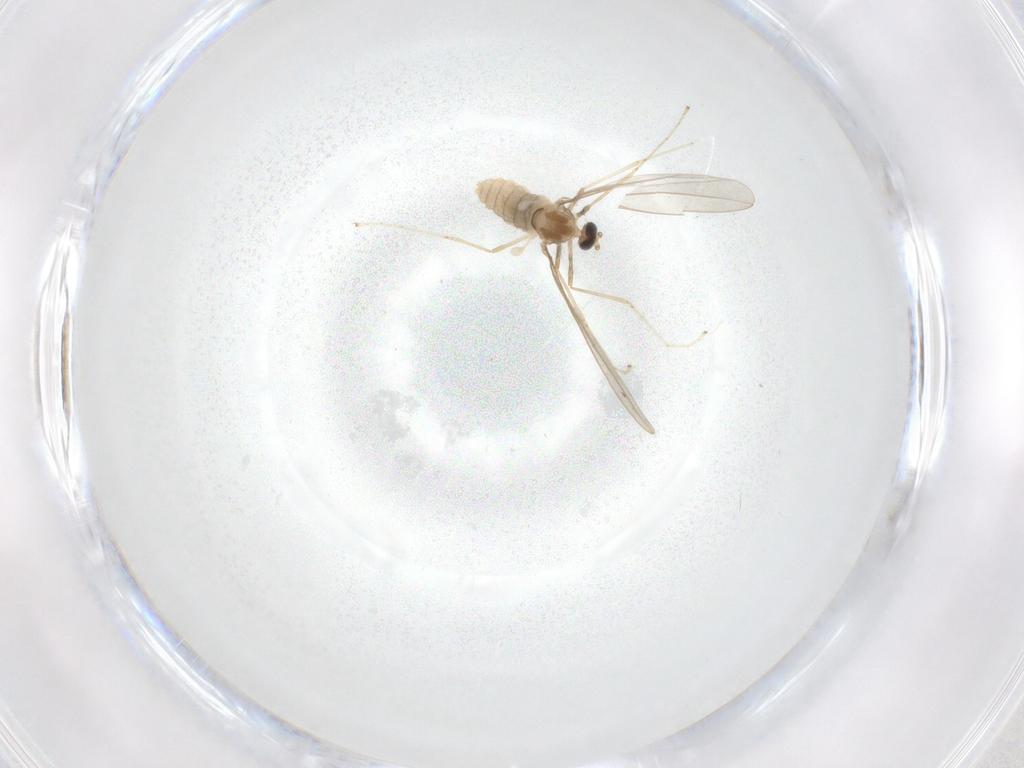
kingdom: Animalia
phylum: Arthropoda
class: Insecta
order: Diptera
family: Cecidomyiidae
